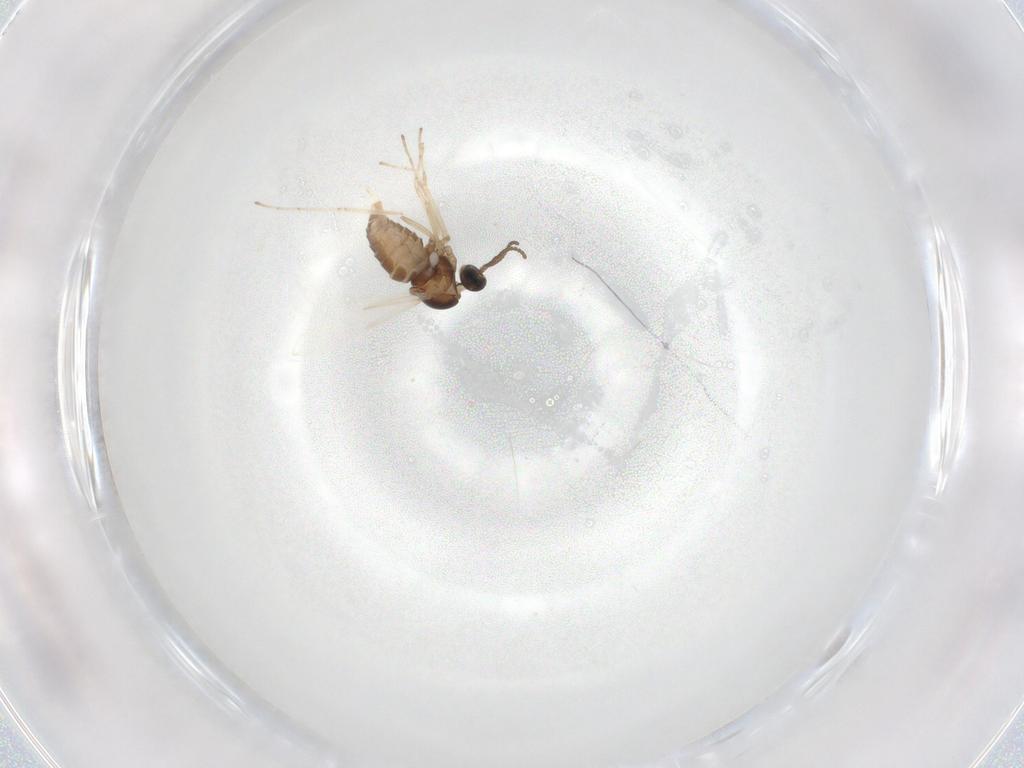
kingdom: Animalia
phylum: Arthropoda
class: Insecta
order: Diptera
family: Cecidomyiidae
